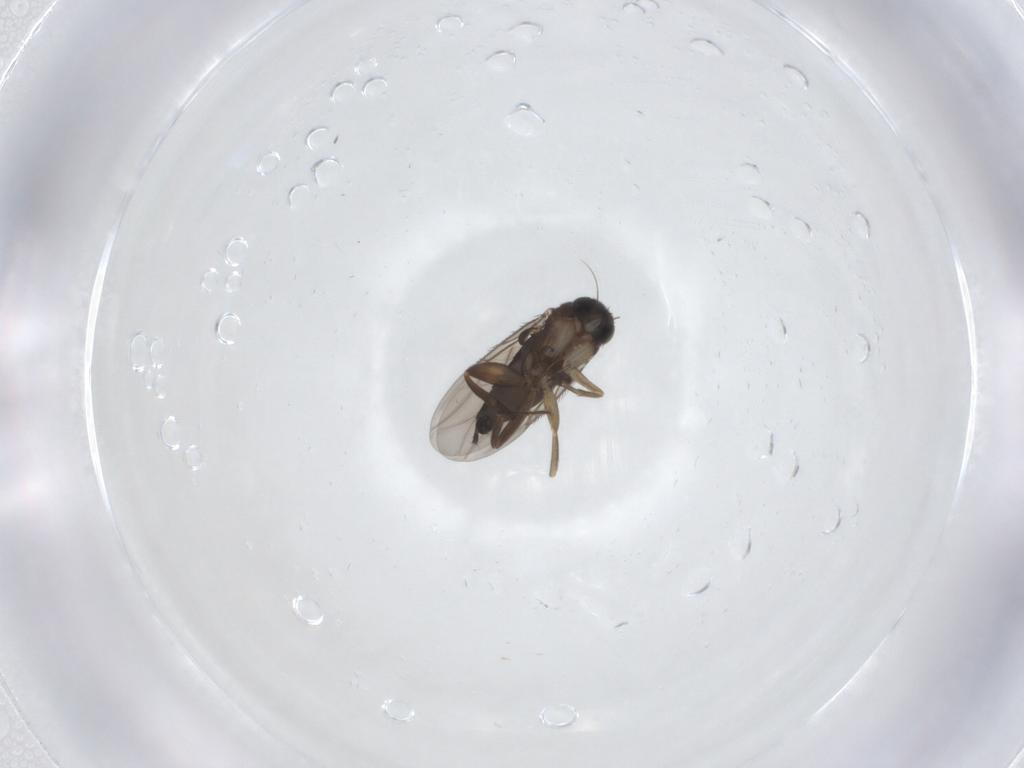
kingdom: Animalia
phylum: Arthropoda
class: Insecta
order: Diptera
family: Phoridae
